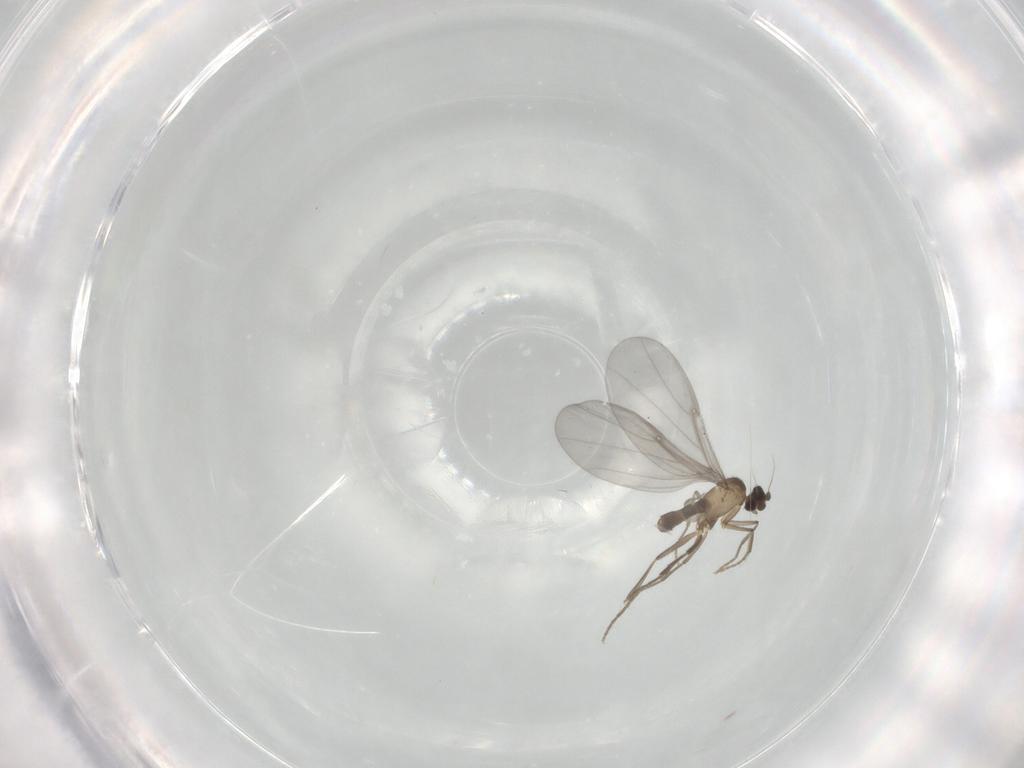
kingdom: Animalia
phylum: Arthropoda
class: Insecta
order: Diptera
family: Phoridae
